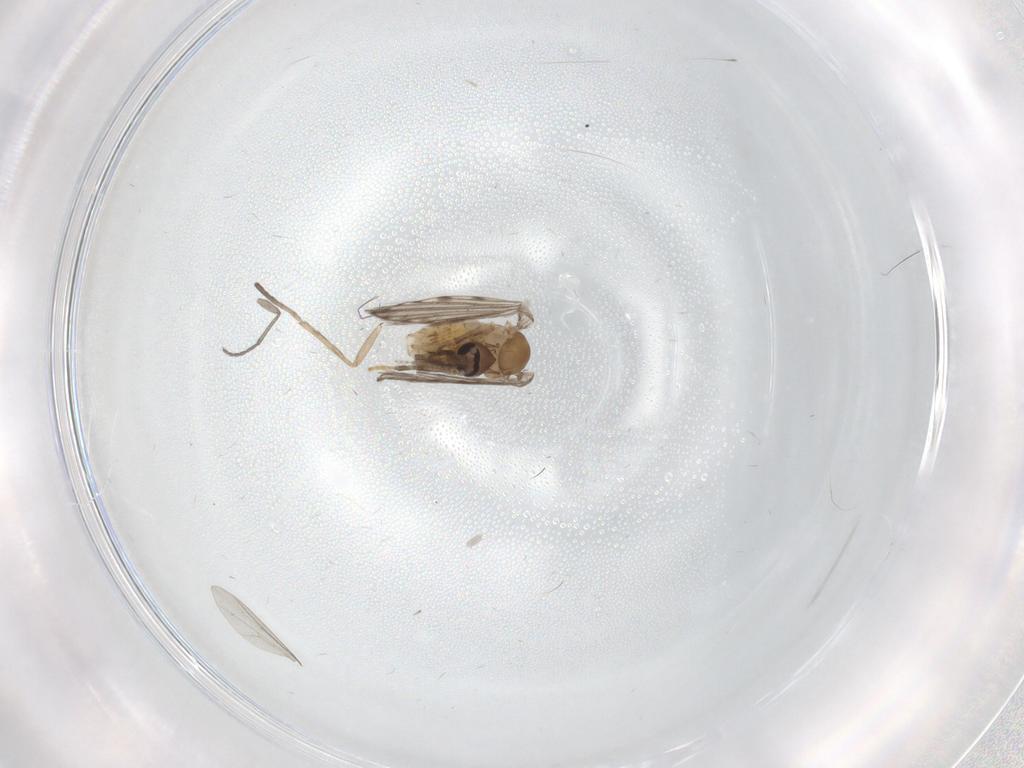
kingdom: Animalia
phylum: Arthropoda
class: Insecta
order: Diptera
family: Psychodidae
